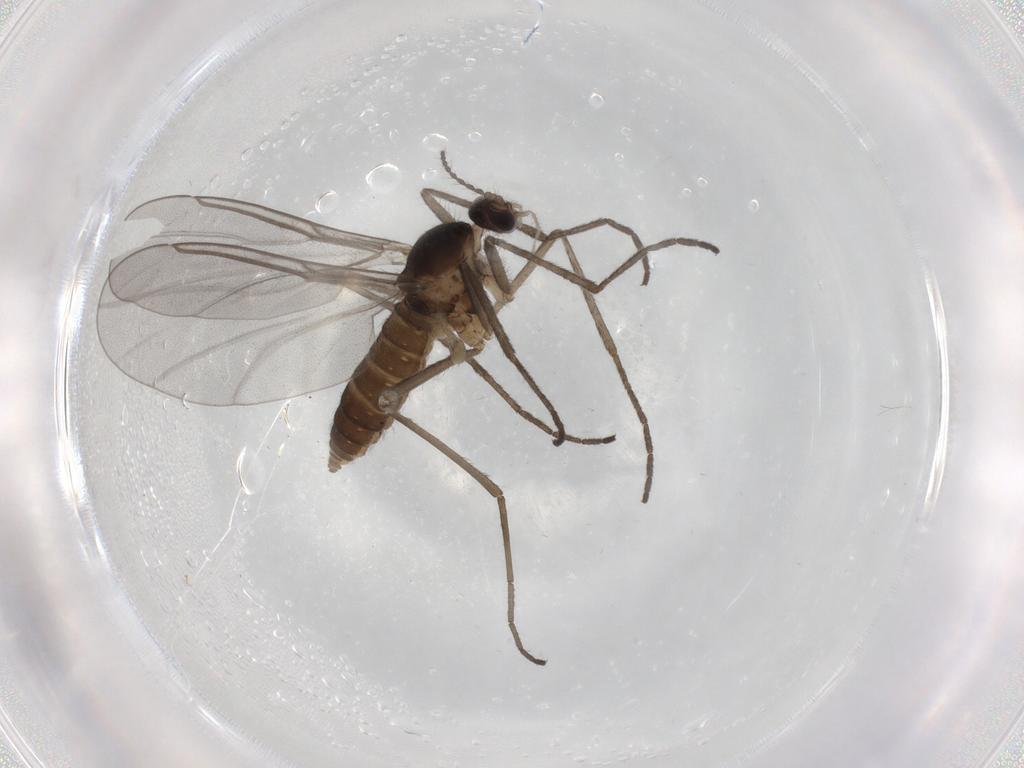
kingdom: Animalia
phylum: Arthropoda
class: Insecta
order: Diptera
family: Cecidomyiidae
